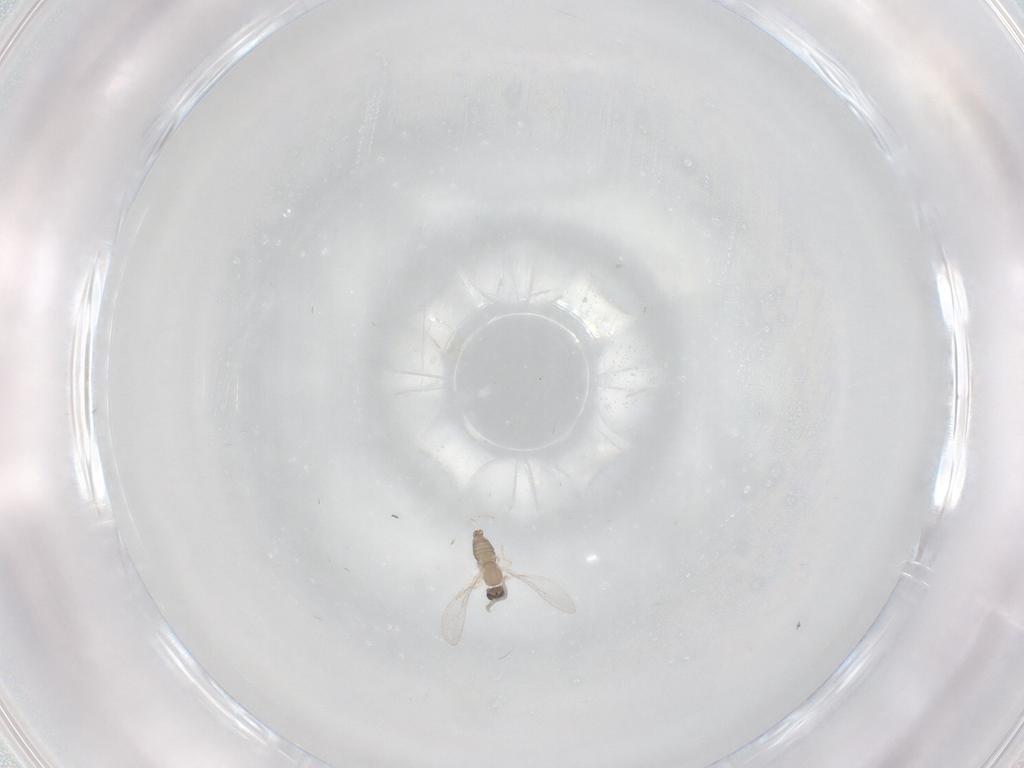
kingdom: Animalia
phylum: Arthropoda
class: Insecta
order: Diptera
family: Cecidomyiidae
